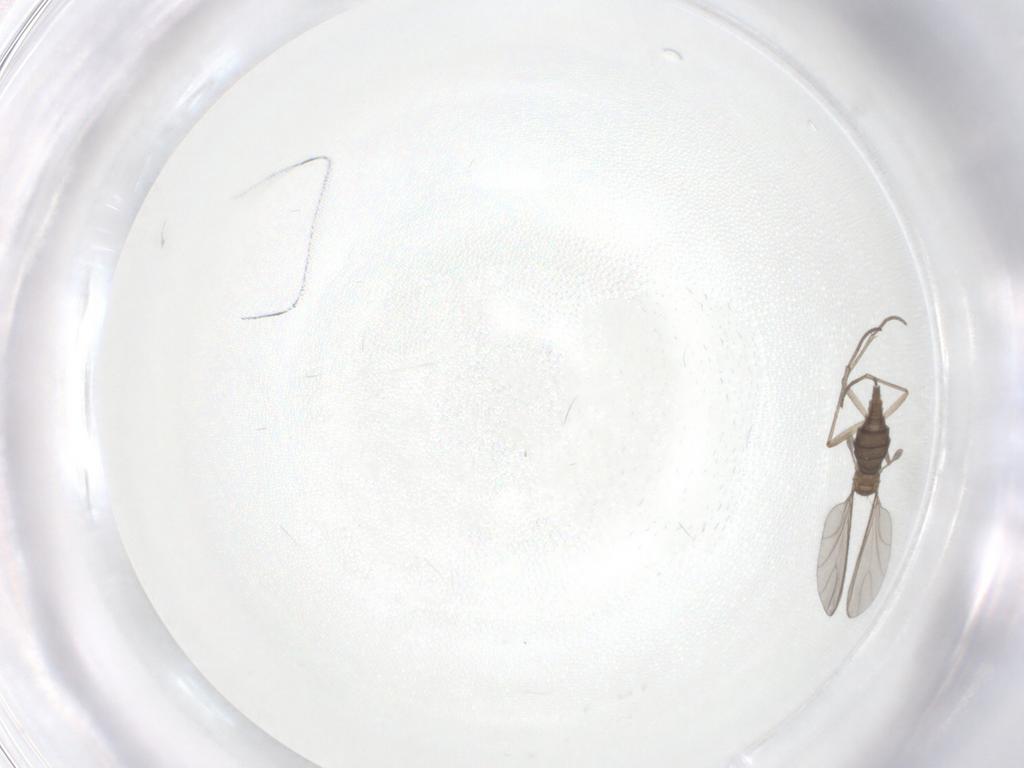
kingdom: Animalia
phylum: Arthropoda
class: Insecta
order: Diptera
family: Sciaridae
